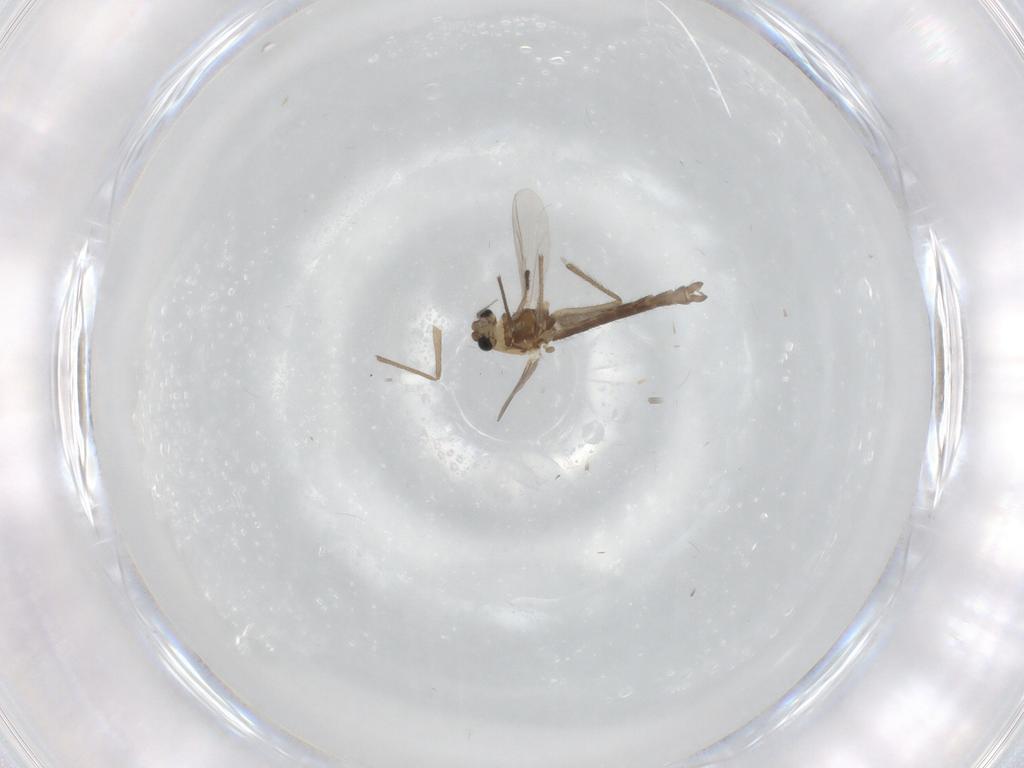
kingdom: Animalia
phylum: Arthropoda
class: Insecta
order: Diptera
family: Chironomidae
